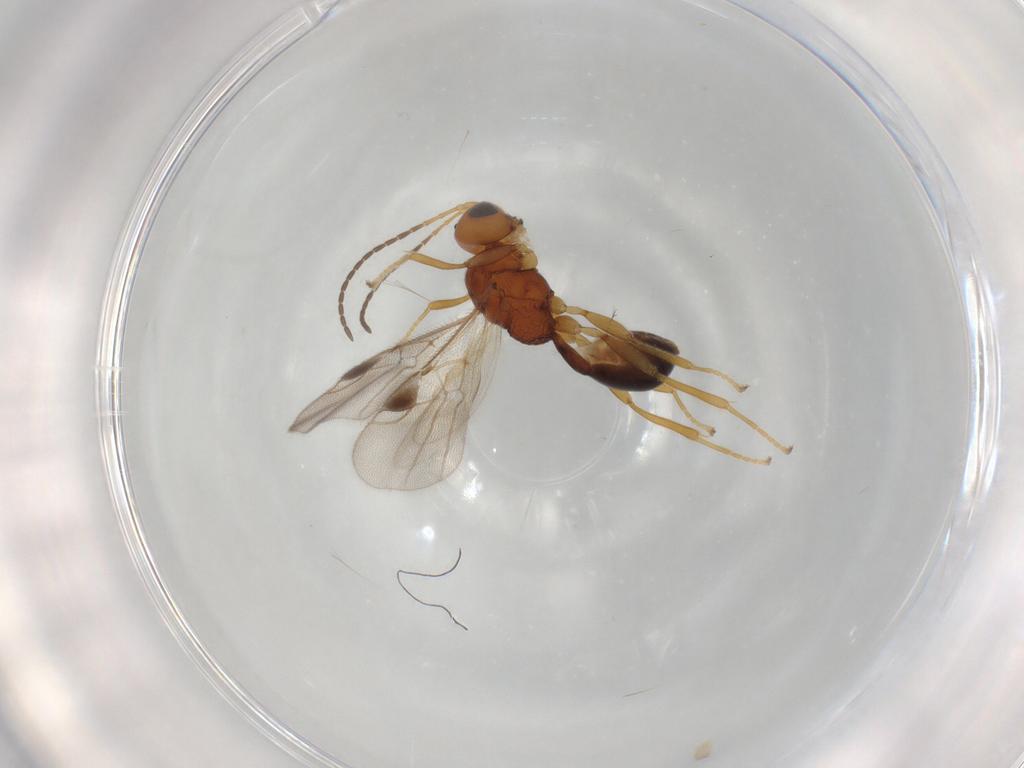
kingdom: Animalia
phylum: Arthropoda
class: Insecta
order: Hymenoptera
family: Braconidae
